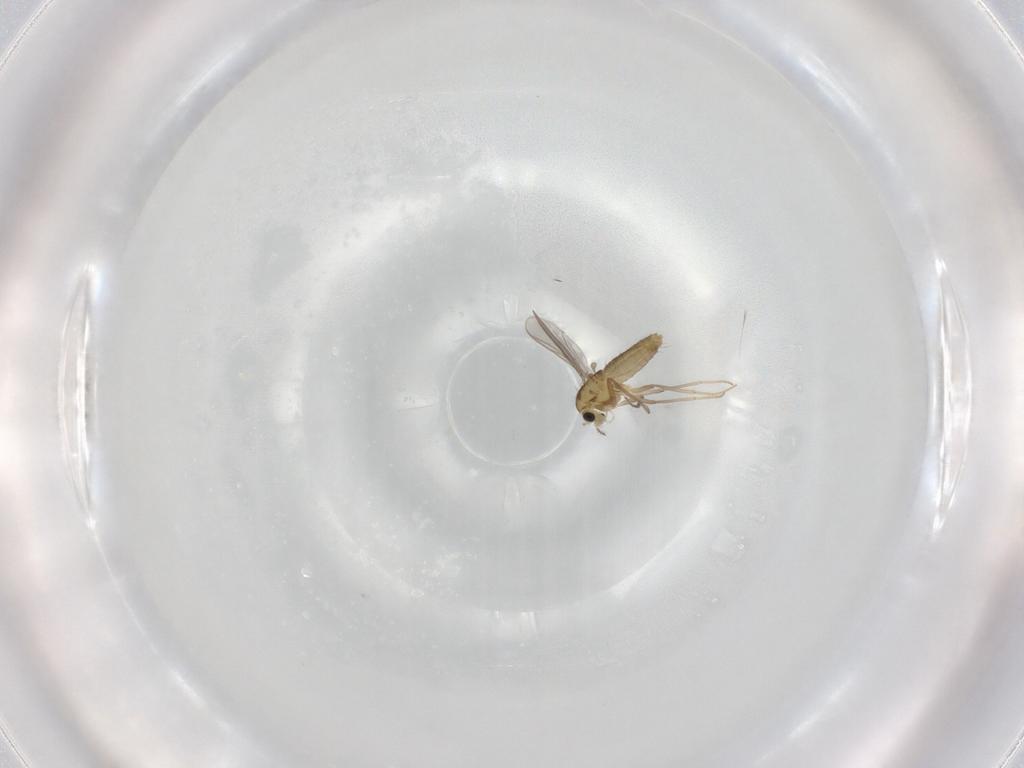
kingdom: Animalia
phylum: Arthropoda
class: Insecta
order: Diptera
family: Chironomidae
